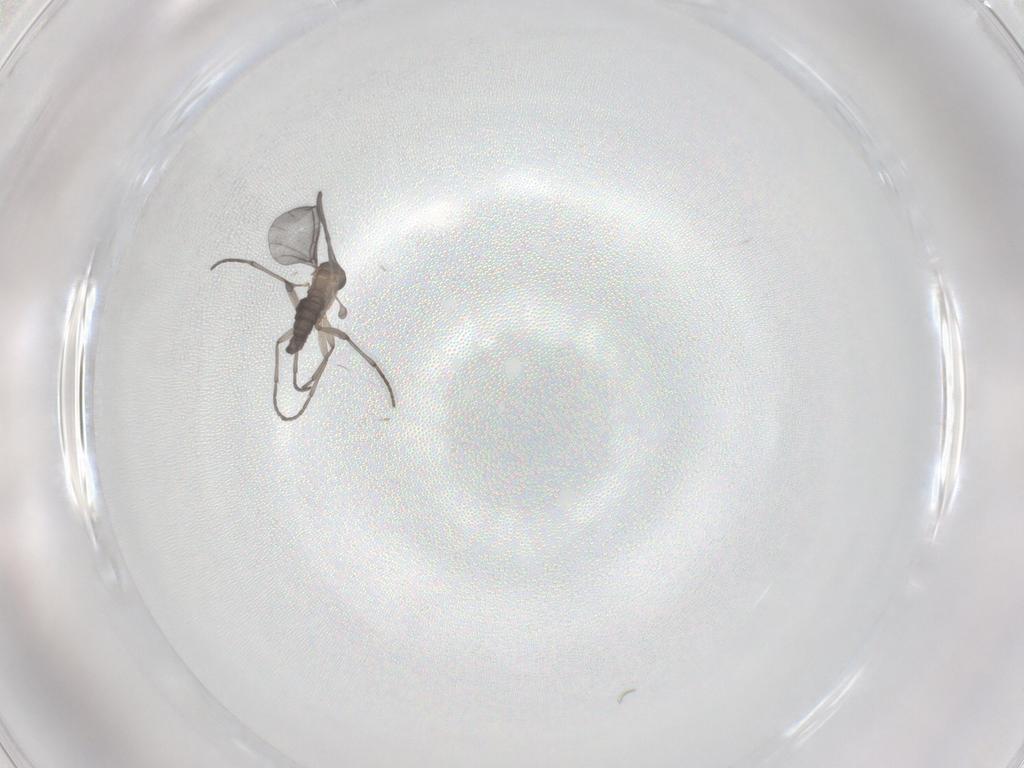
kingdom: Animalia
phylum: Arthropoda
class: Insecta
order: Diptera
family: Sciaridae
